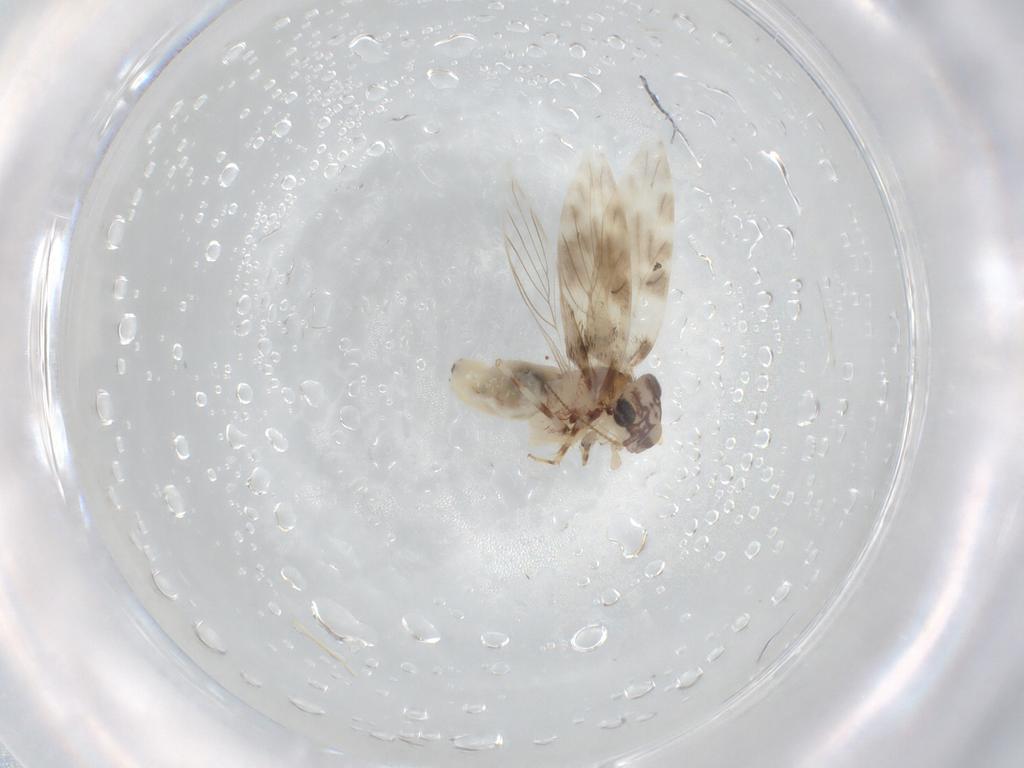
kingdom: Animalia
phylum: Arthropoda
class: Insecta
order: Psocodea
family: Lepidopsocidae
